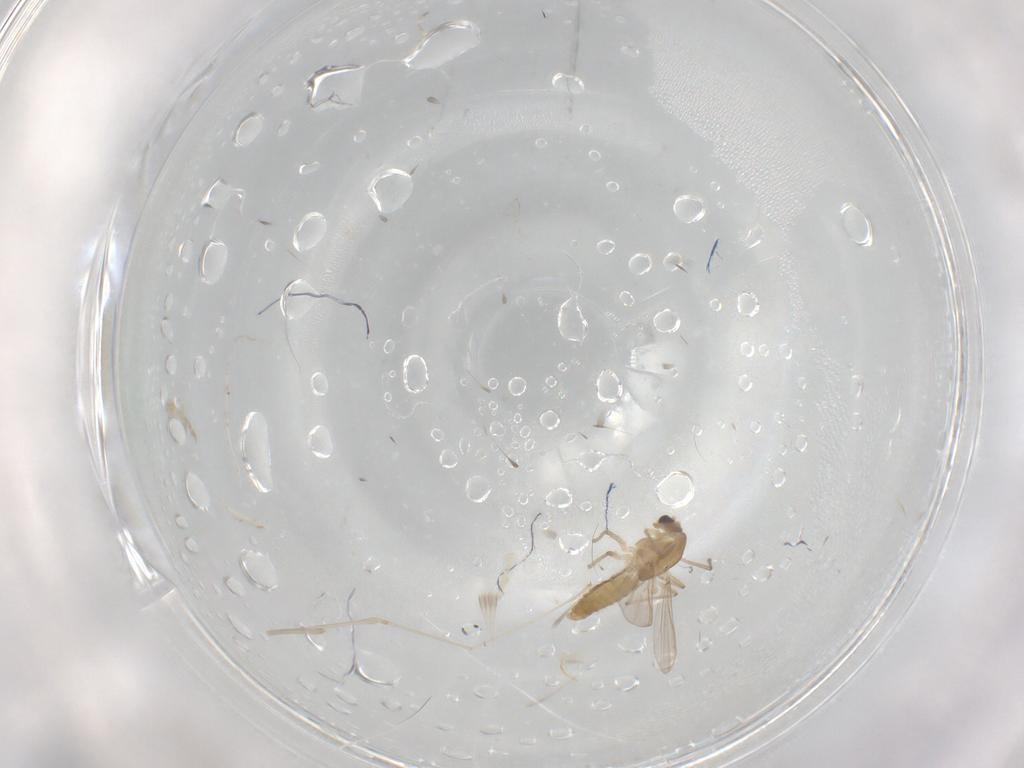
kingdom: Animalia
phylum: Arthropoda
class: Insecta
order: Diptera
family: Cecidomyiidae
